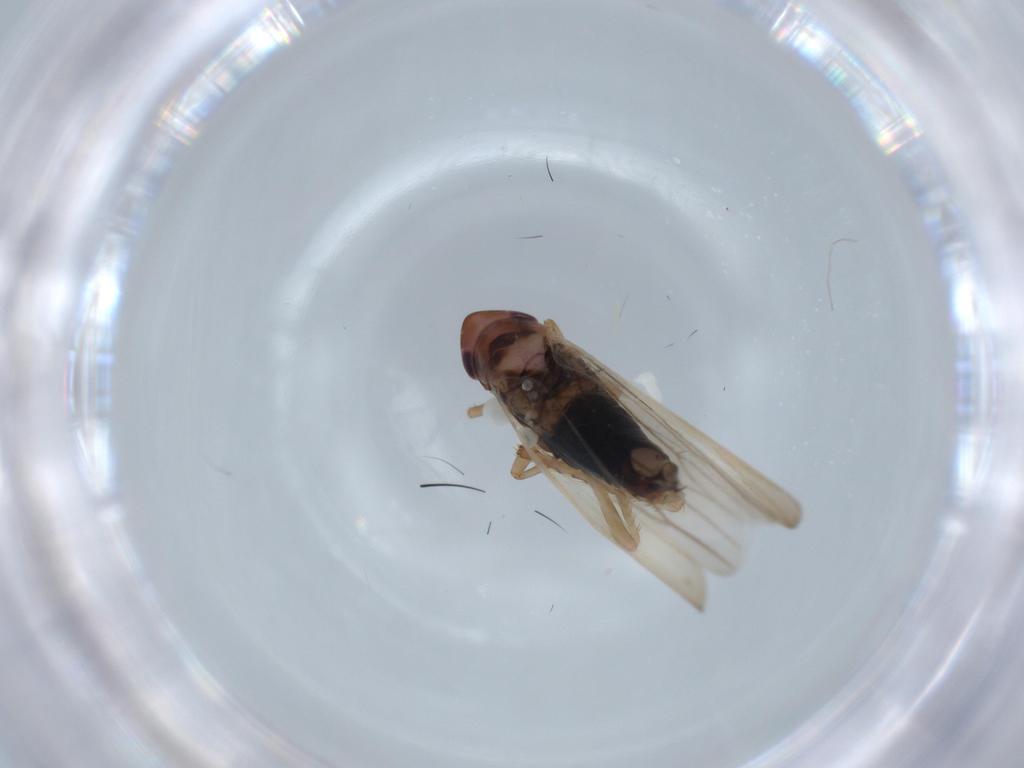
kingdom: Animalia
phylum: Arthropoda
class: Insecta
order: Hemiptera
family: Cicadellidae
